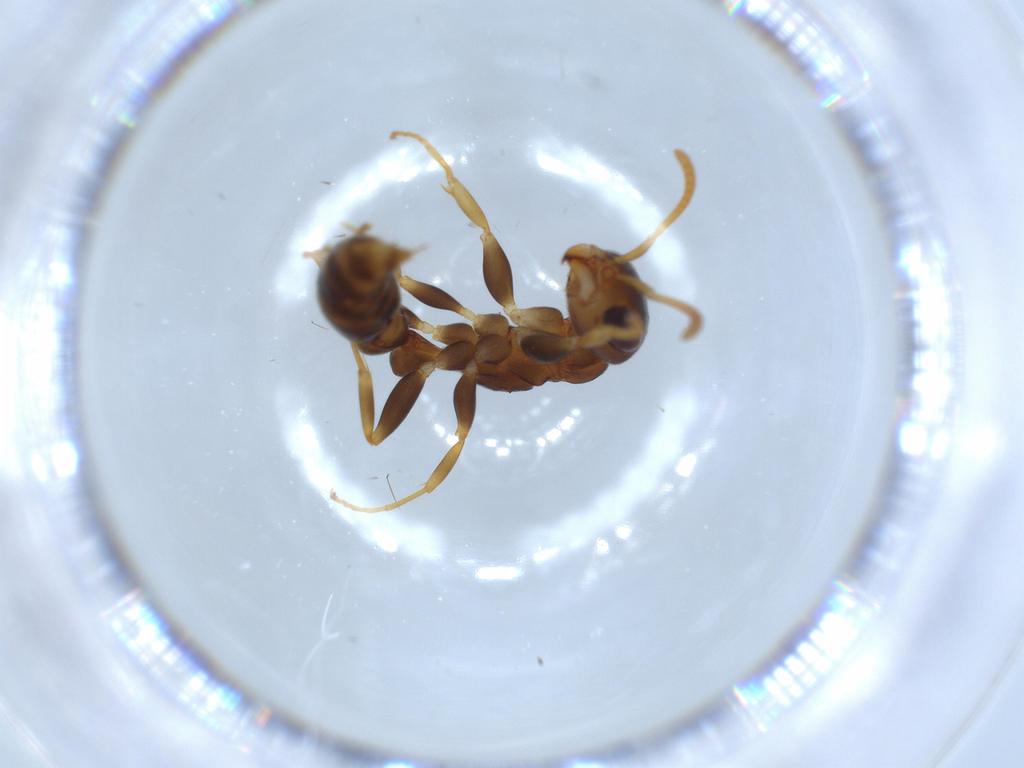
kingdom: Animalia
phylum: Arthropoda
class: Insecta
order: Hymenoptera
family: Formicidae
